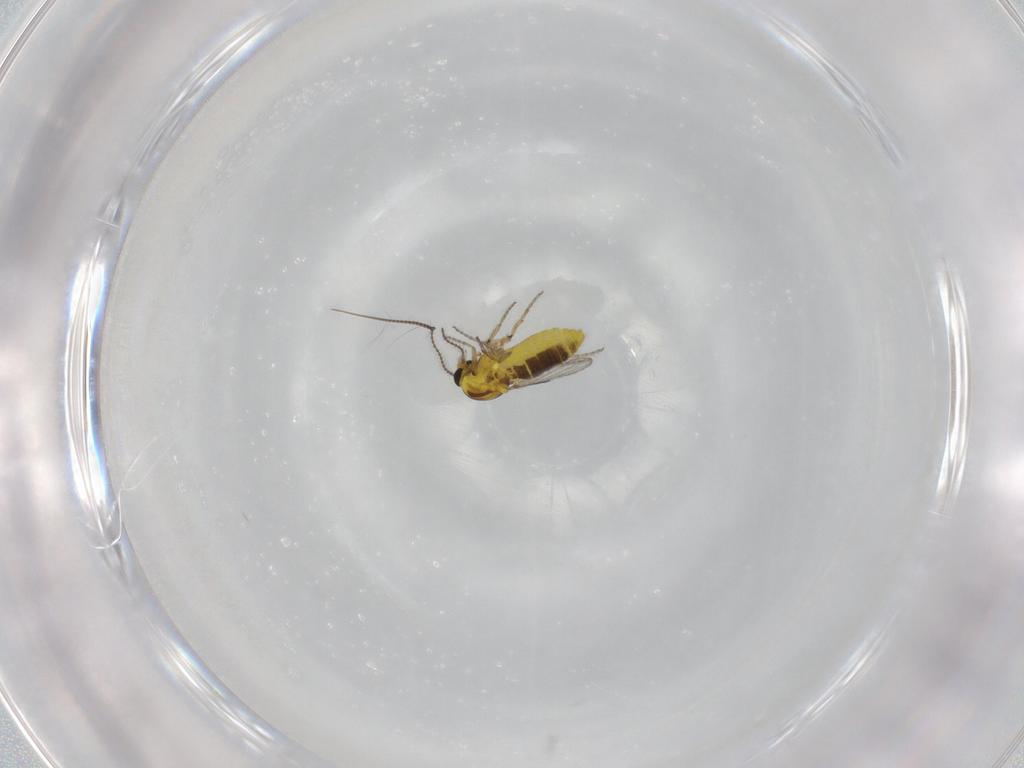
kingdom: Animalia
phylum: Arthropoda
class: Insecta
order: Diptera
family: Ceratopogonidae
